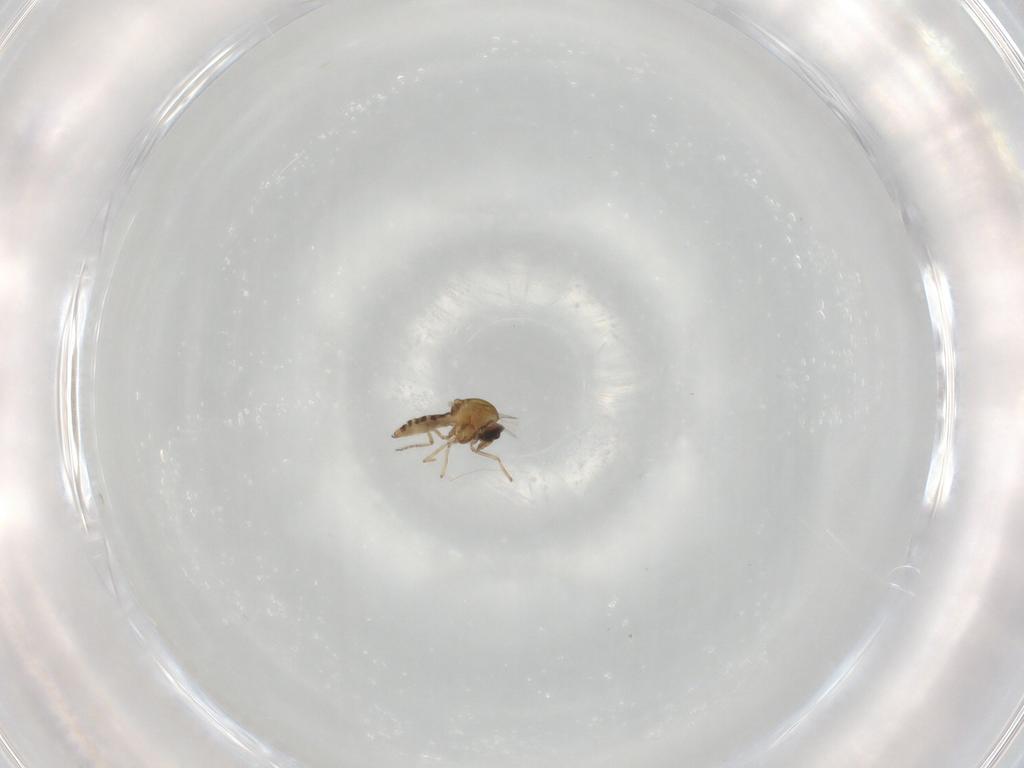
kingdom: Animalia
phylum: Arthropoda
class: Insecta
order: Diptera
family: Ceratopogonidae
